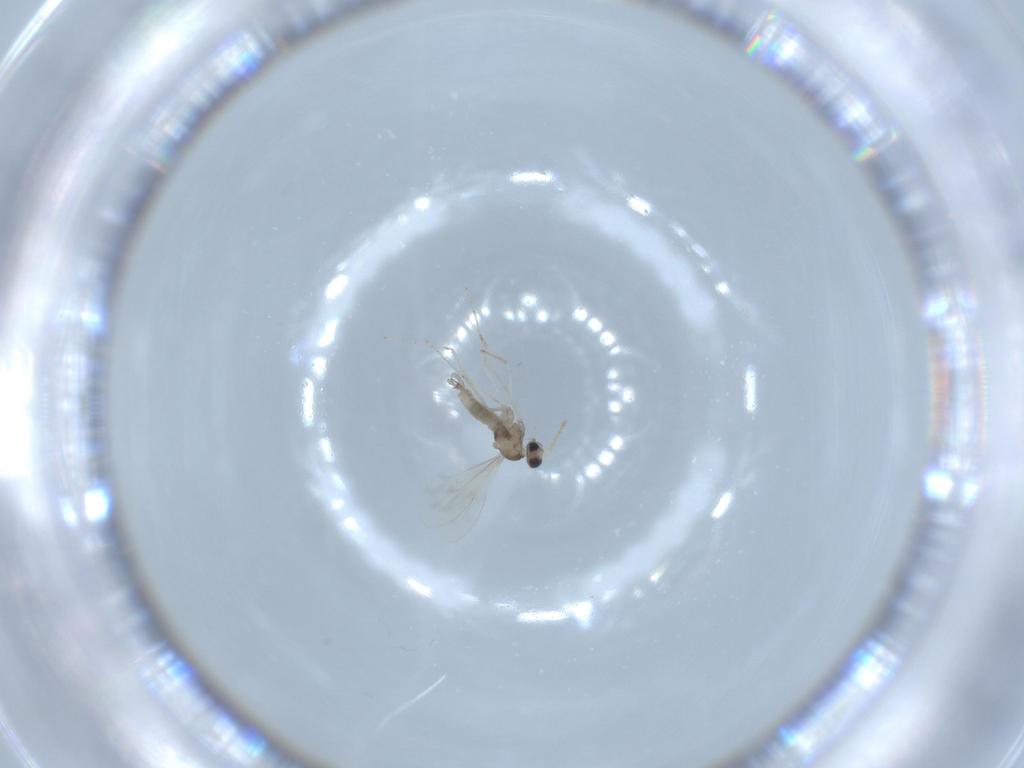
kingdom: Animalia
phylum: Arthropoda
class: Insecta
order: Diptera
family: Cecidomyiidae
